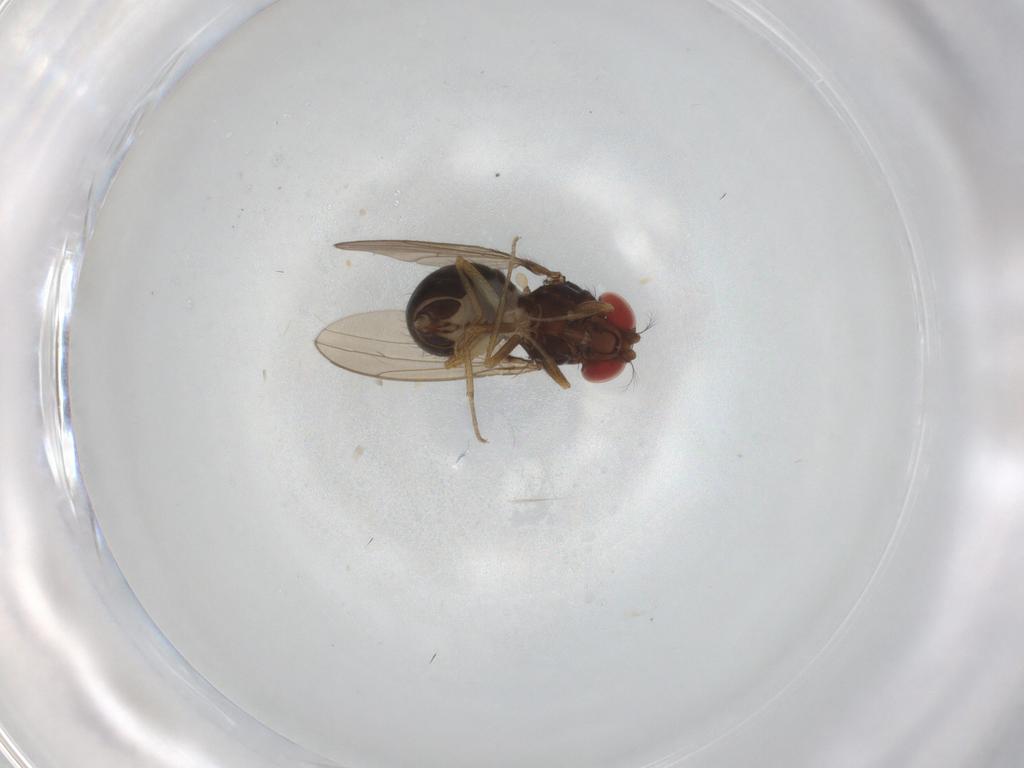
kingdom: Animalia
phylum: Arthropoda
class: Insecta
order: Diptera
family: Drosophilidae
